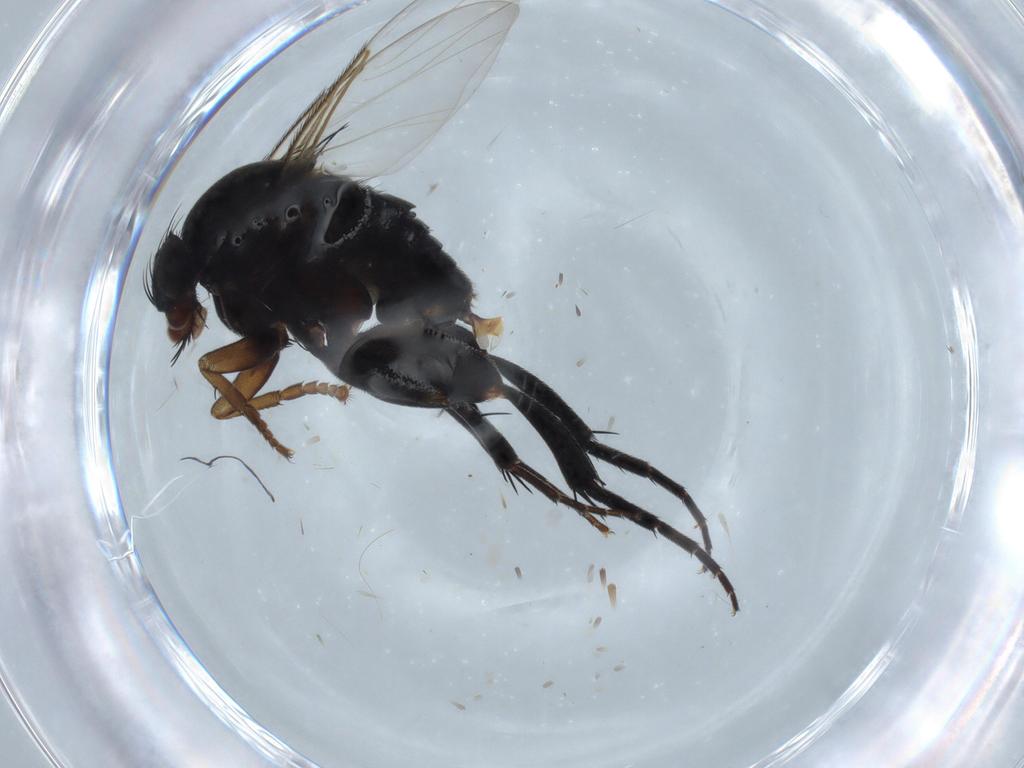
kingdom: Animalia
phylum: Arthropoda
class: Insecta
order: Diptera
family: Phoridae
